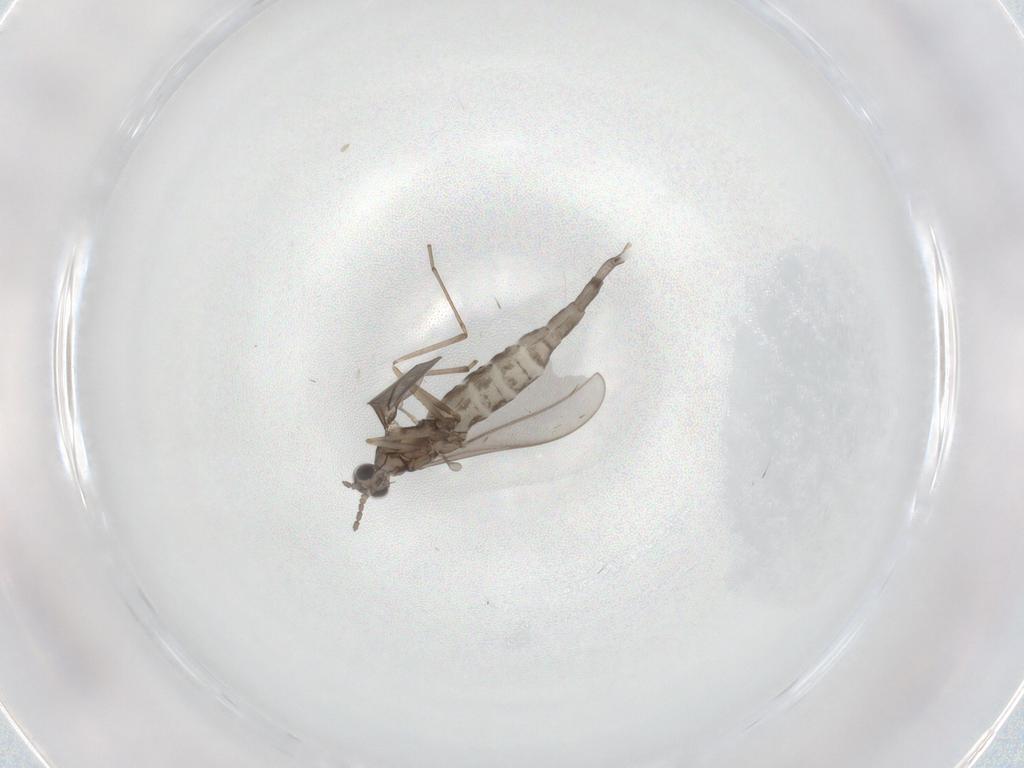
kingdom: Animalia
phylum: Arthropoda
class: Insecta
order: Diptera
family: Cecidomyiidae
